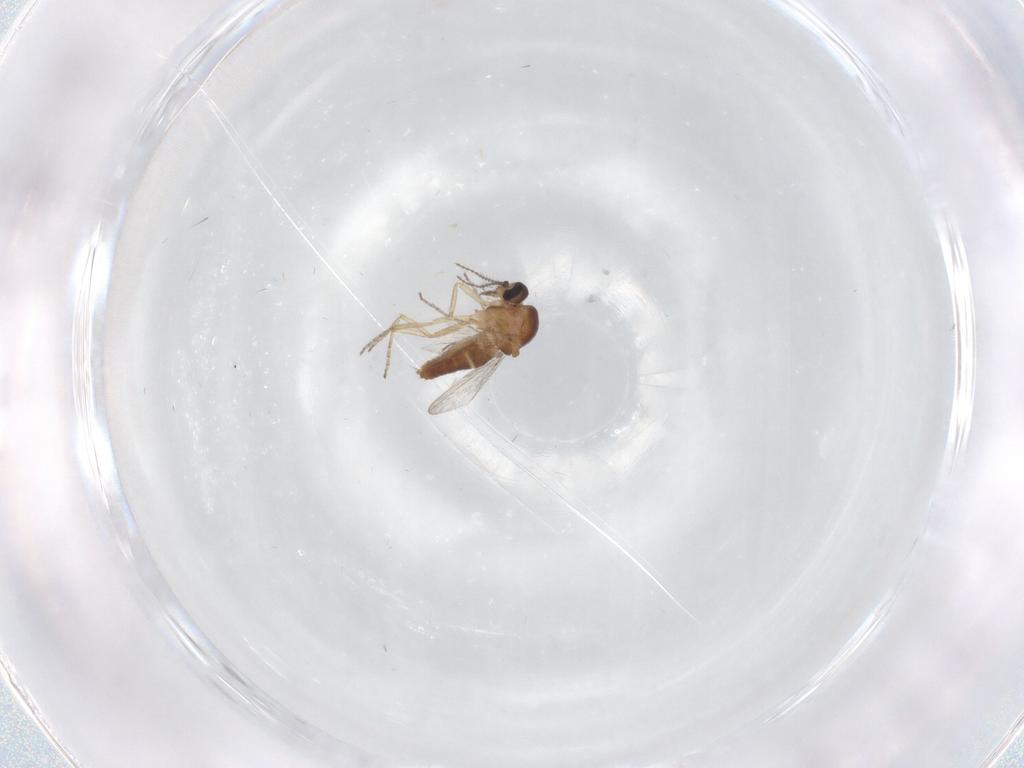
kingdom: Animalia
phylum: Arthropoda
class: Insecta
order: Diptera
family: Ceratopogonidae
